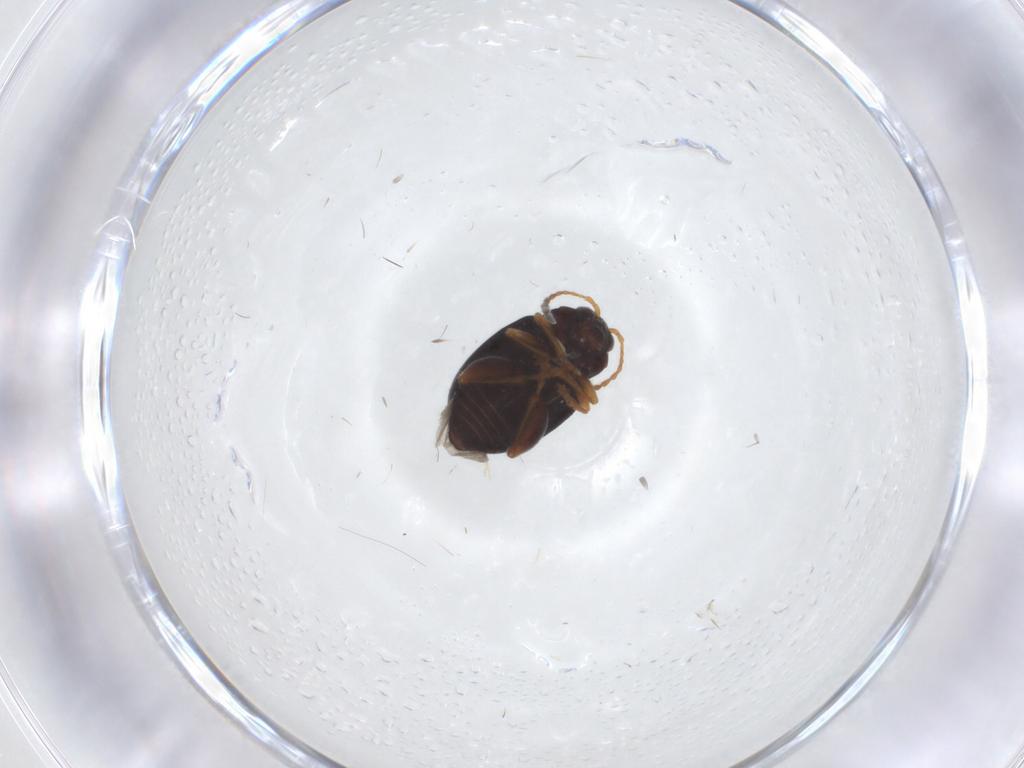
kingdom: Animalia
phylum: Arthropoda
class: Insecta
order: Coleoptera
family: Chrysomelidae
